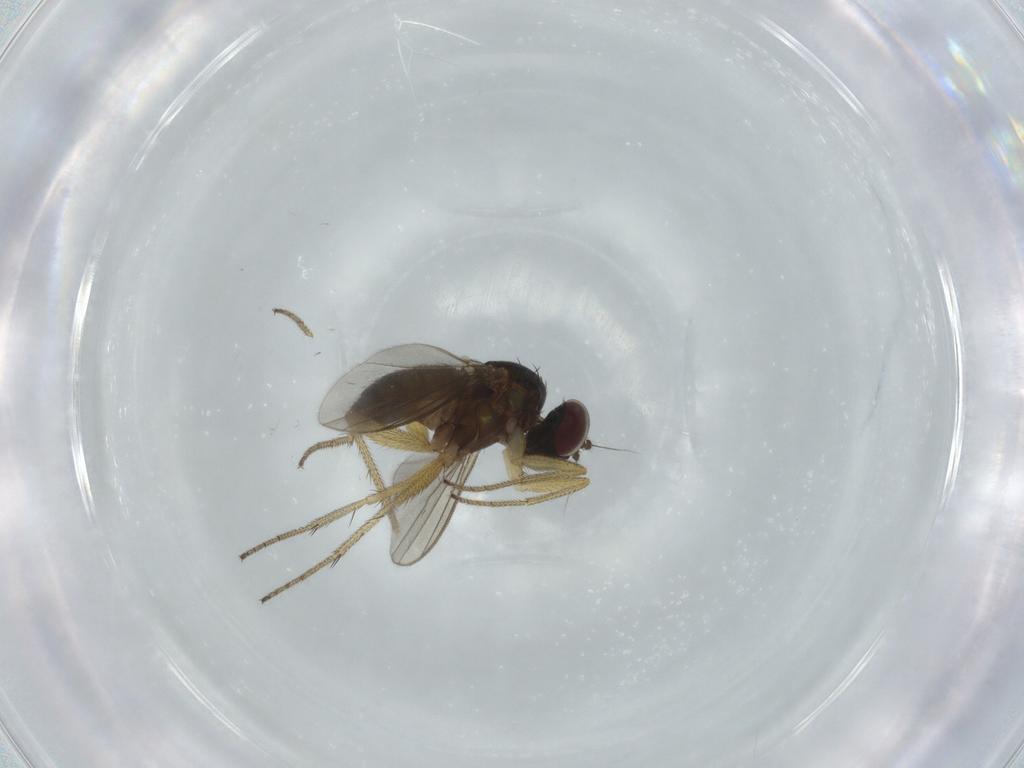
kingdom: Animalia
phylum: Arthropoda
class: Insecta
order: Diptera
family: Dolichopodidae
